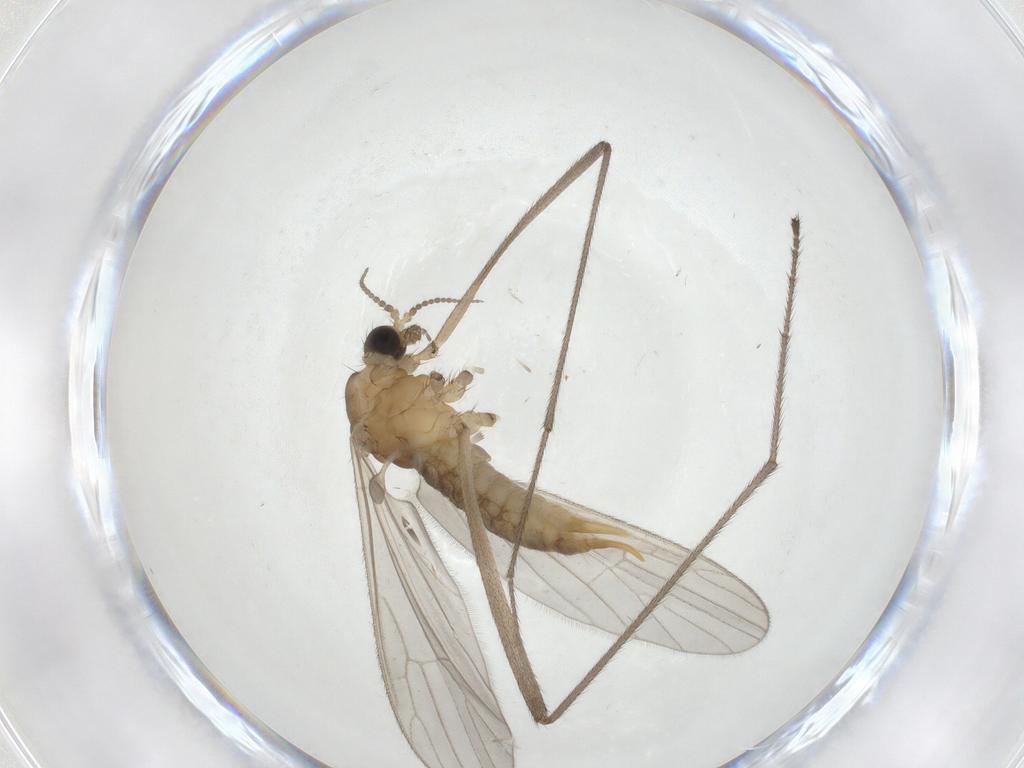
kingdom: Animalia
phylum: Arthropoda
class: Insecta
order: Diptera
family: Limoniidae
